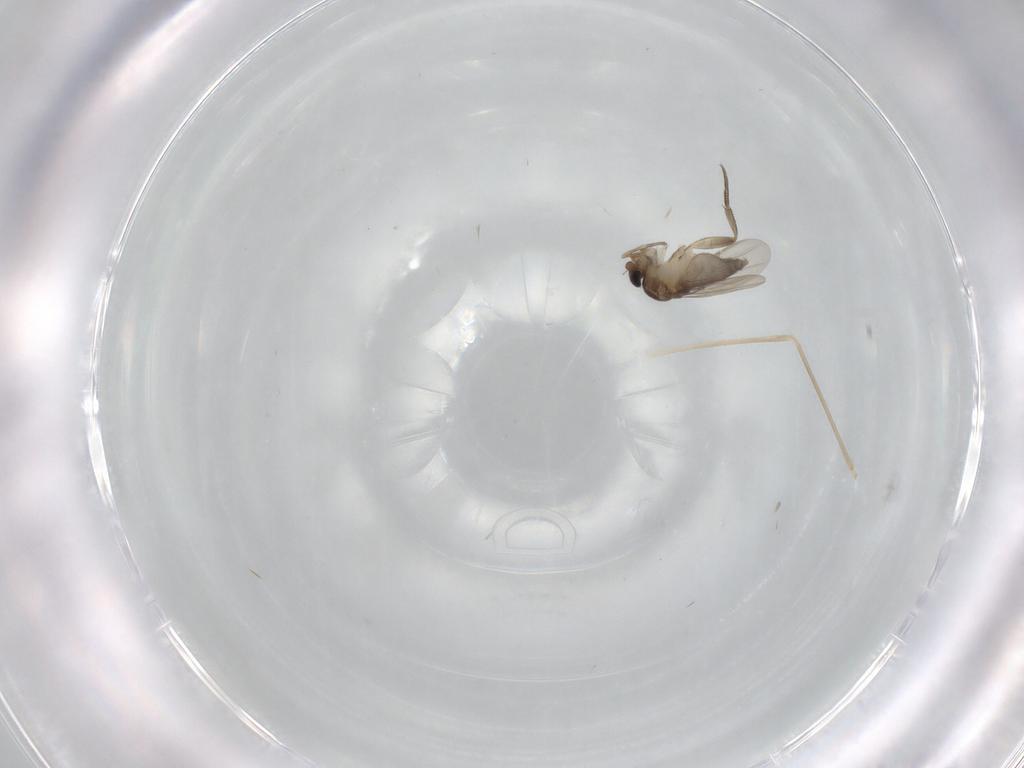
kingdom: Animalia
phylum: Arthropoda
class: Insecta
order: Diptera
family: Phoridae
